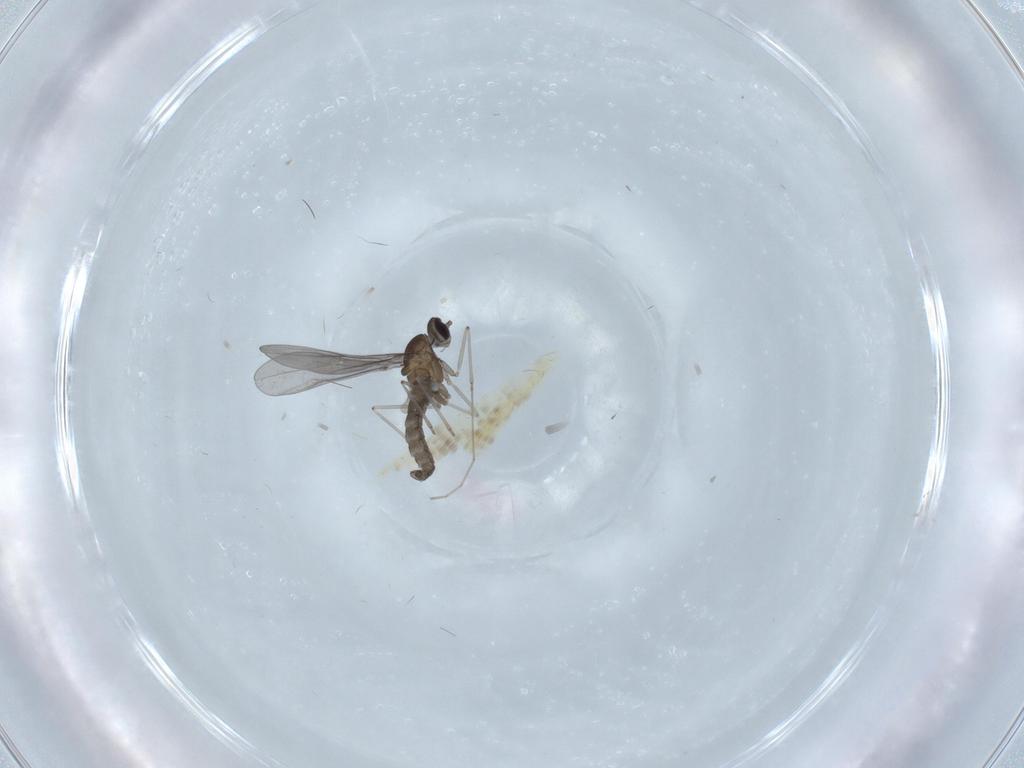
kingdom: Animalia
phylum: Arthropoda
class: Insecta
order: Diptera
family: Cecidomyiidae
